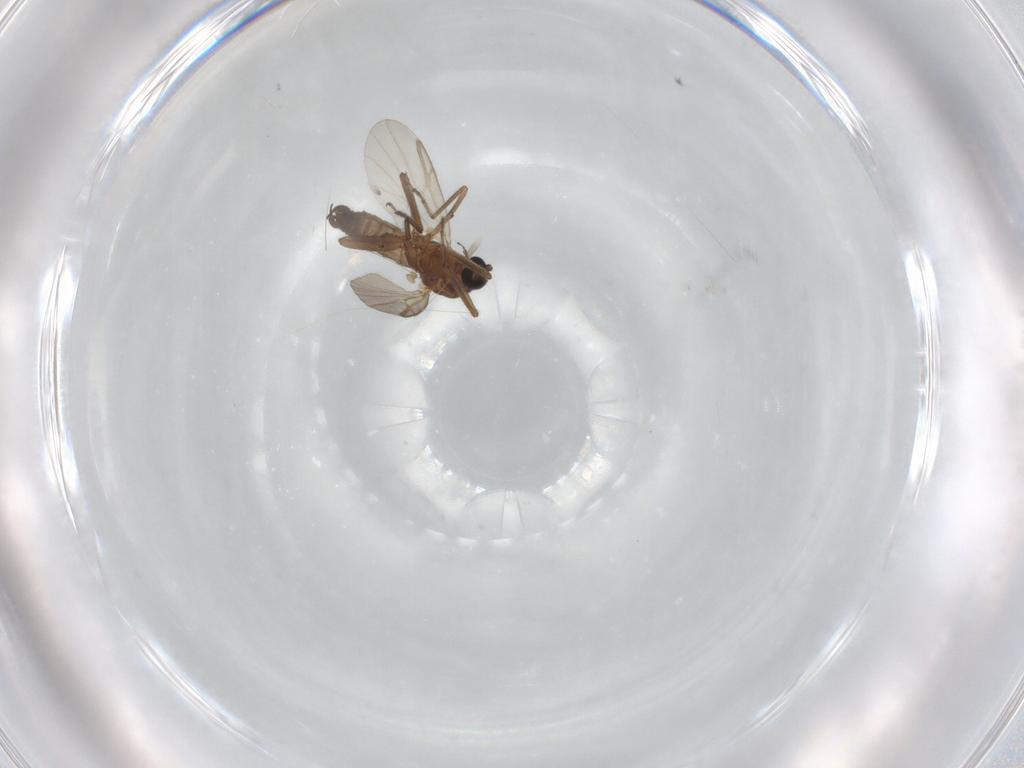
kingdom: Animalia
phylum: Arthropoda
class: Insecta
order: Diptera
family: Ceratopogonidae
